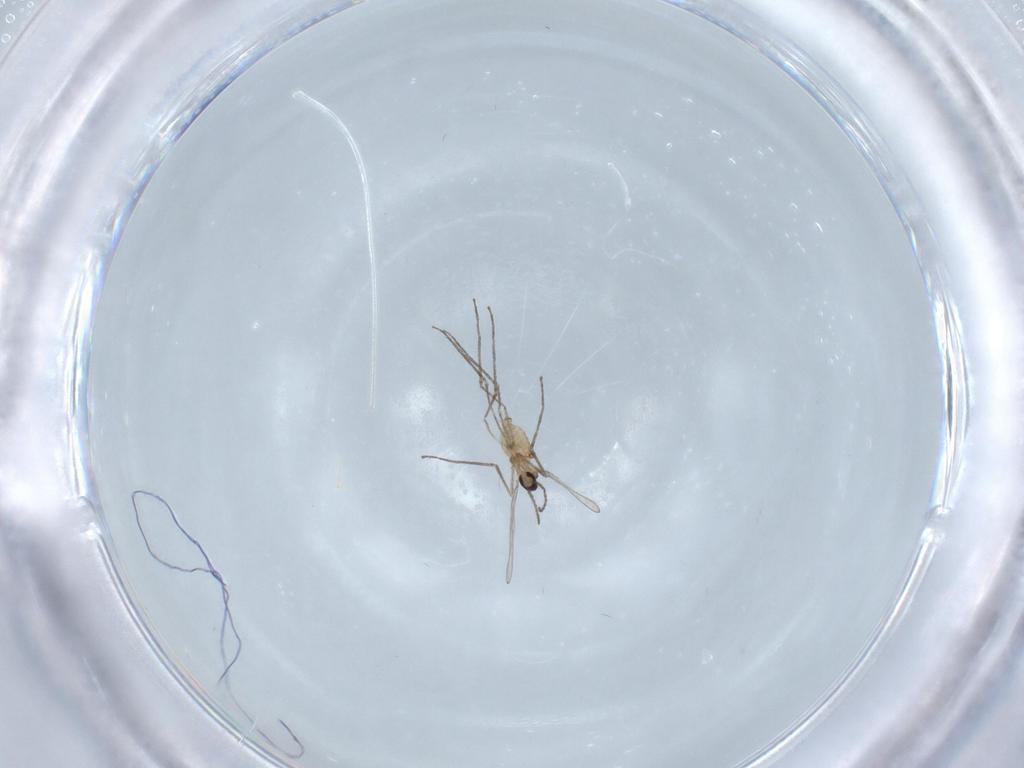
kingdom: Animalia
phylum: Arthropoda
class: Insecta
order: Diptera
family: Cecidomyiidae
